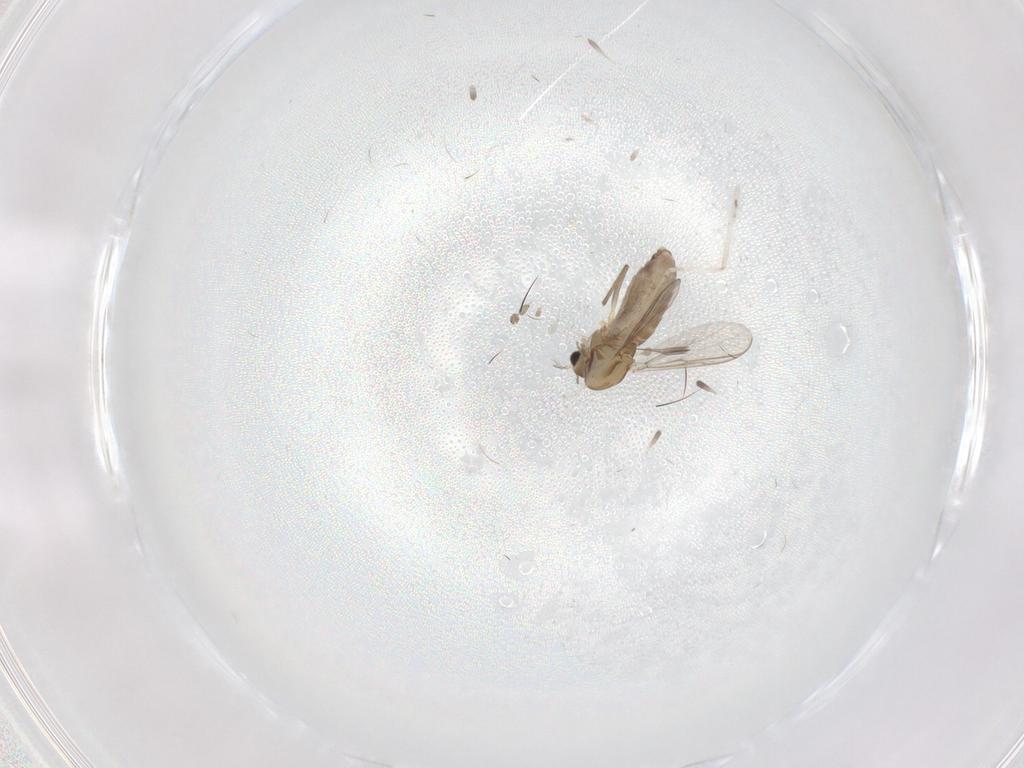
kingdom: Animalia
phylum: Arthropoda
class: Insecta
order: Diptera
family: Chironomidae
